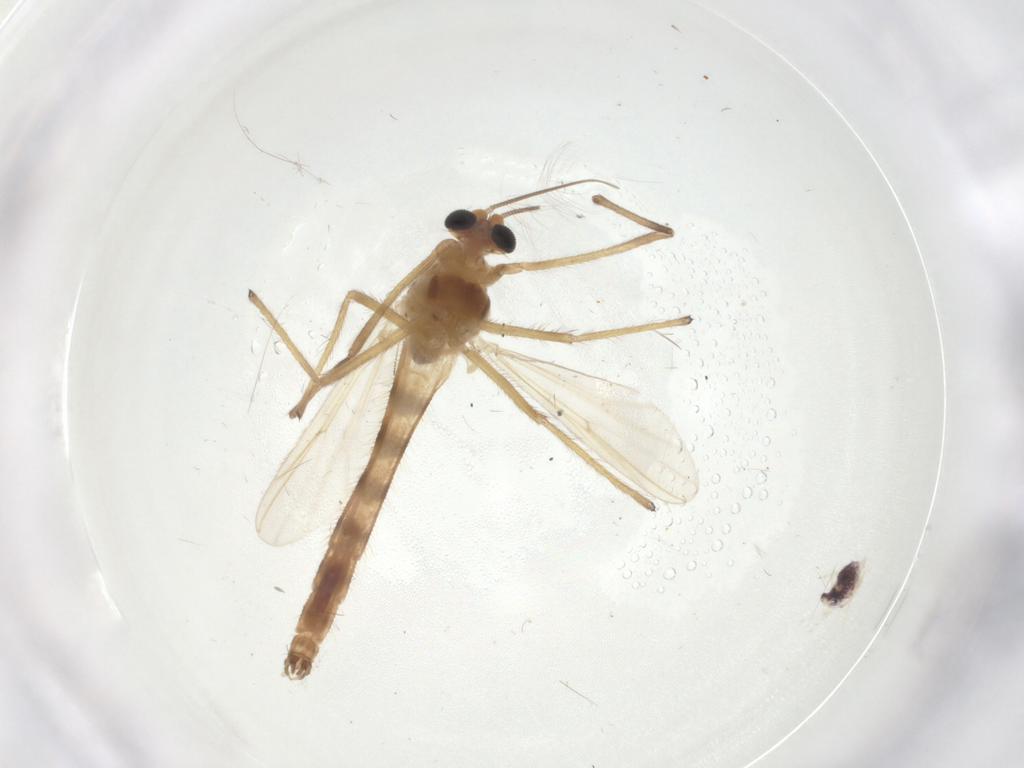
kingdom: Animalia
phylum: Arthropoda
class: Insecta
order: Diptera
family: Chironomidae
